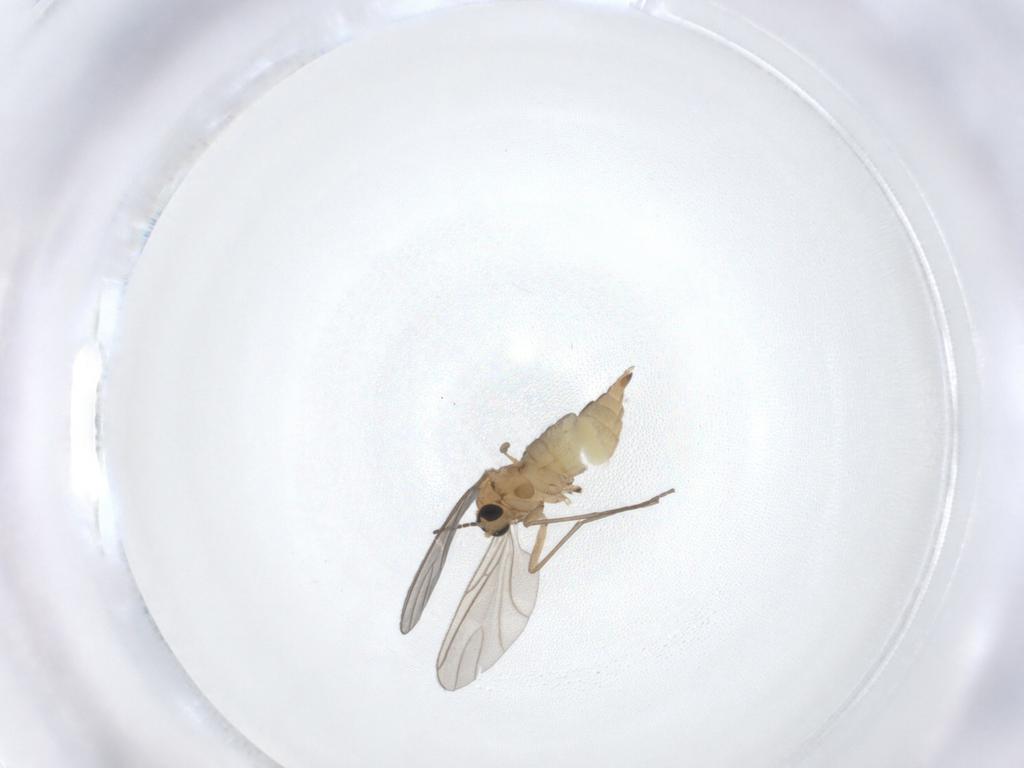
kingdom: Animalia
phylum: Arthropoda
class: Insecta
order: Diptera
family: Sciaridae
